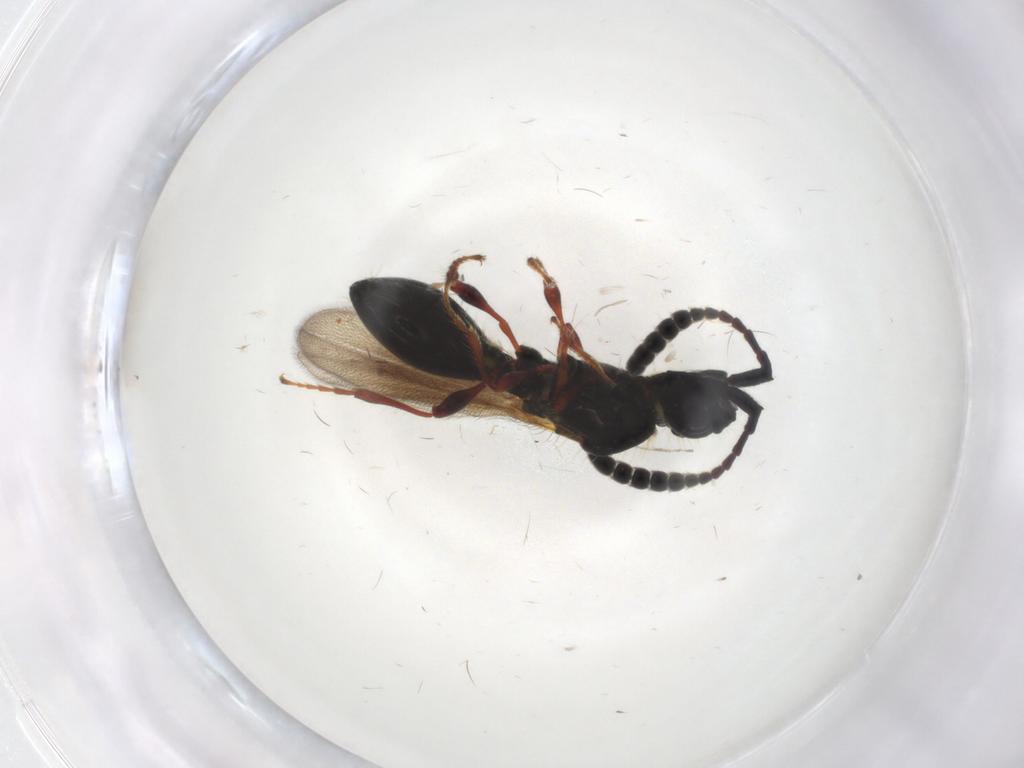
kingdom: Animalia
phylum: Arthropoda
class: Insecta
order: Hymenoptera
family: Diapriidae
